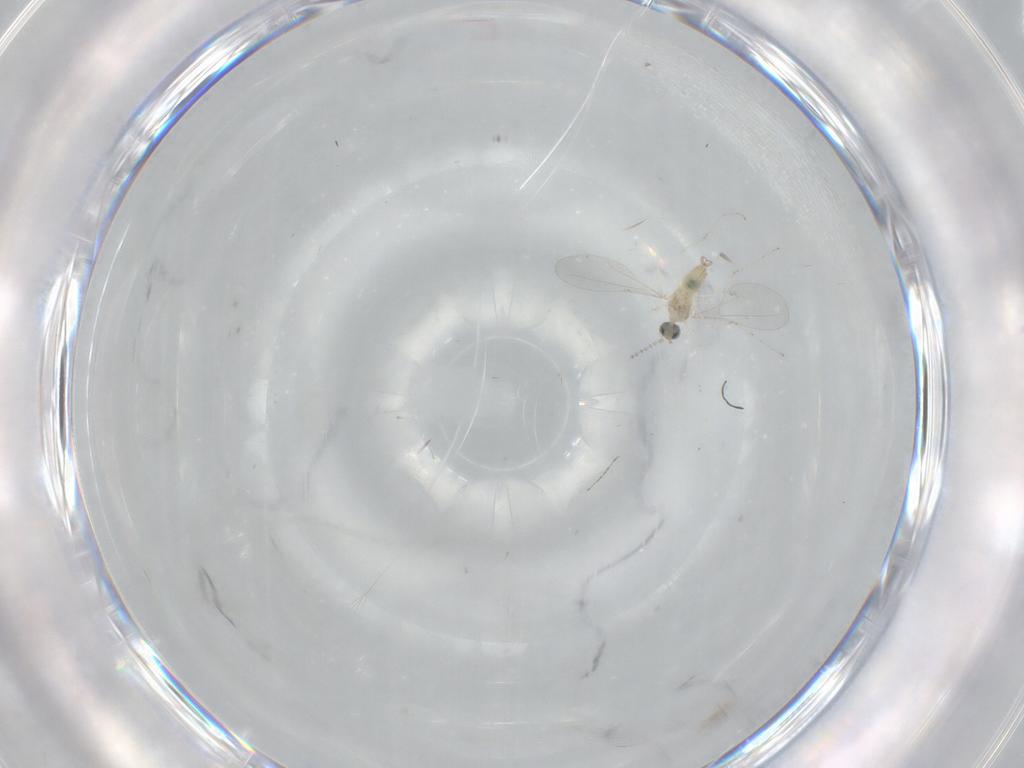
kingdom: Animalia
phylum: Arthropoda
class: Insecta
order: Diptera
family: Cecidomyiidae
